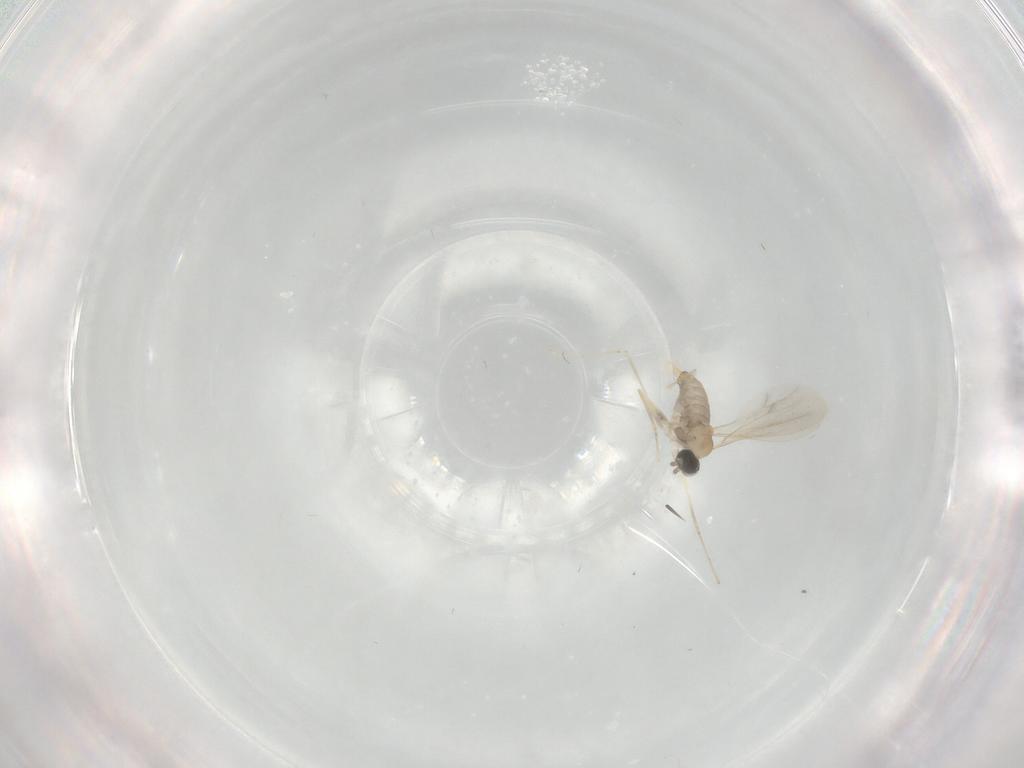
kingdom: Animalia
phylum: Arthropoda
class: Insecta
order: Diptera
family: Cecidomyiidae
